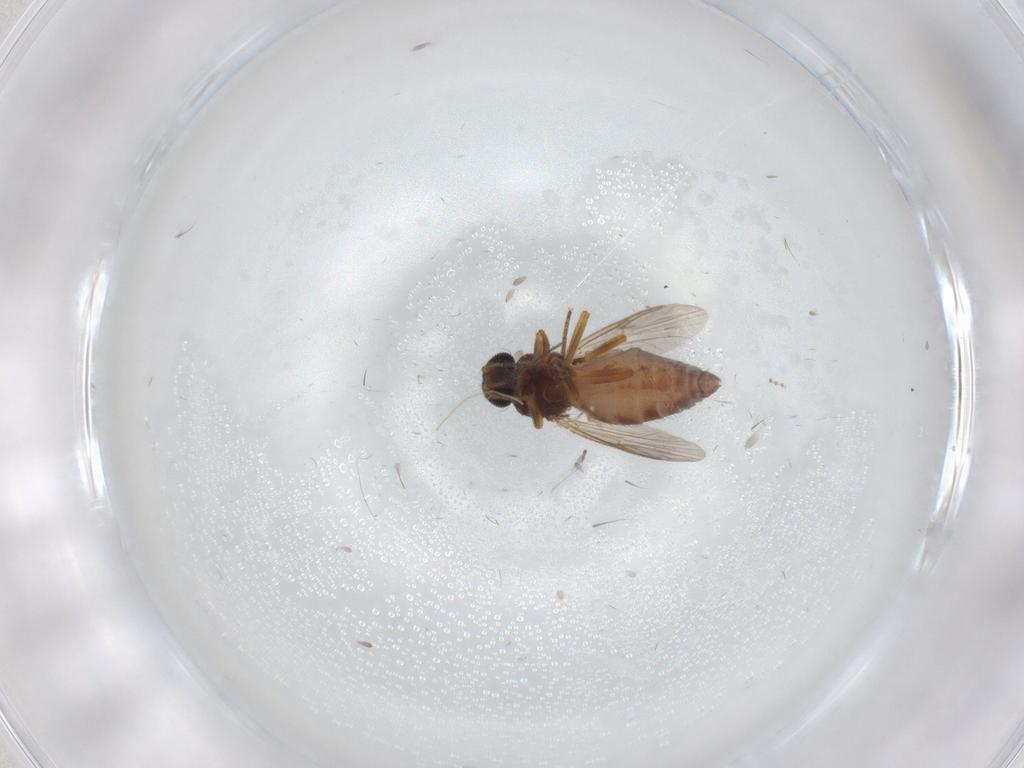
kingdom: Animalia
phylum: Arthropoda
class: Insecta
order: Diptera
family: Ceratopogonidae
